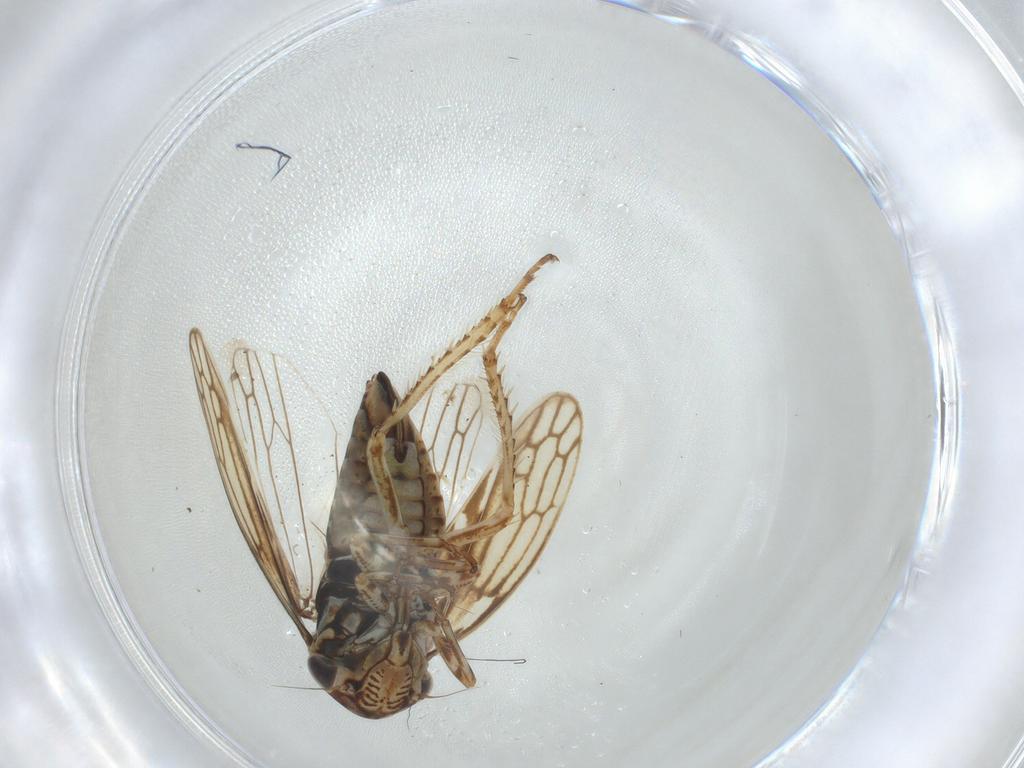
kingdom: Animalia
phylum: Arthropoda
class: Insecta
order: Hemiptera
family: Cicadellidae
